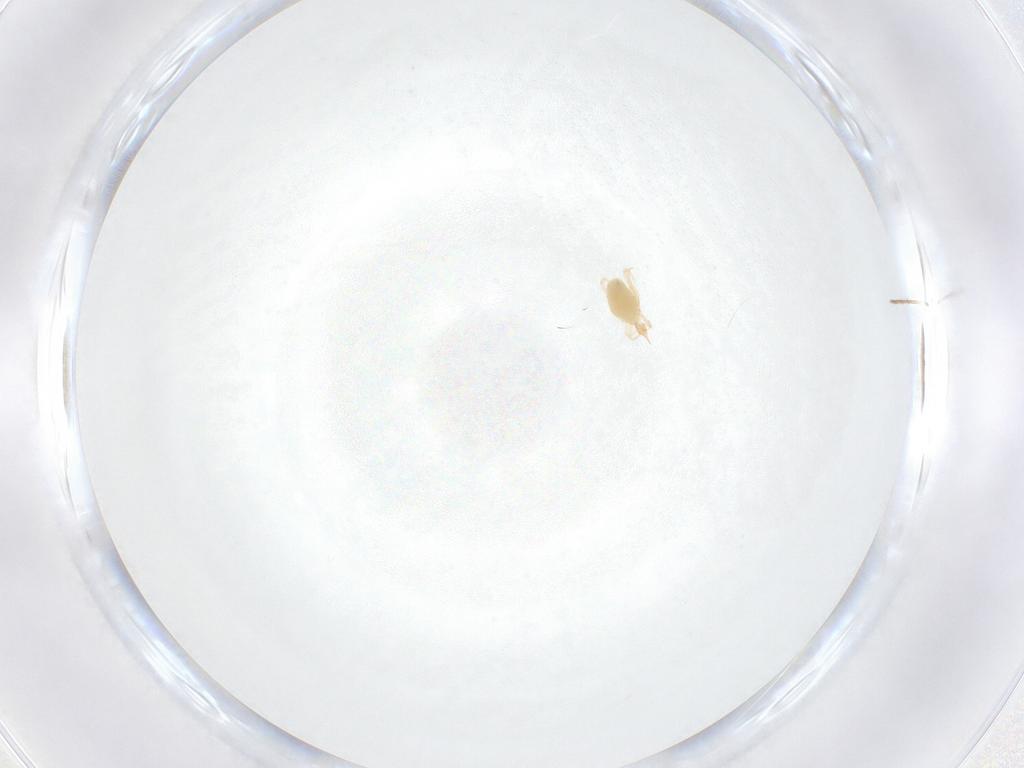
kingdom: Animalia
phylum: Arthropoda
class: Arachnida
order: Trombidiformes
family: Cunaxidae
